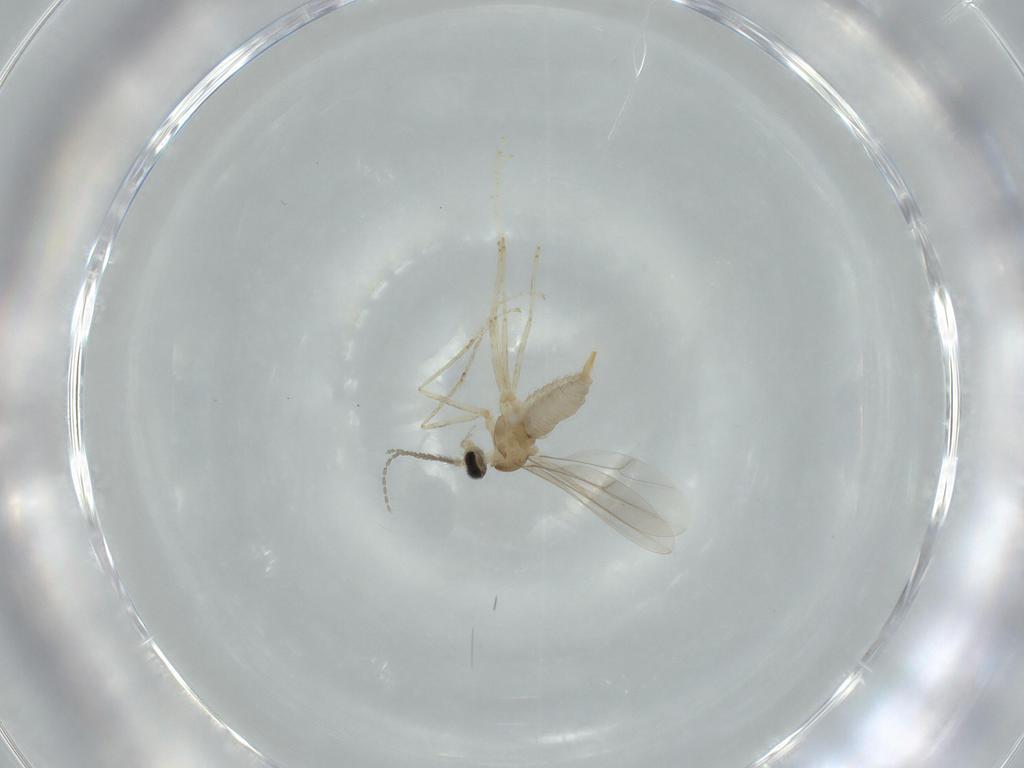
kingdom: Animalia
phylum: Arthropoda
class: Insecta
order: Diptera
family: Cecidomyiidae
